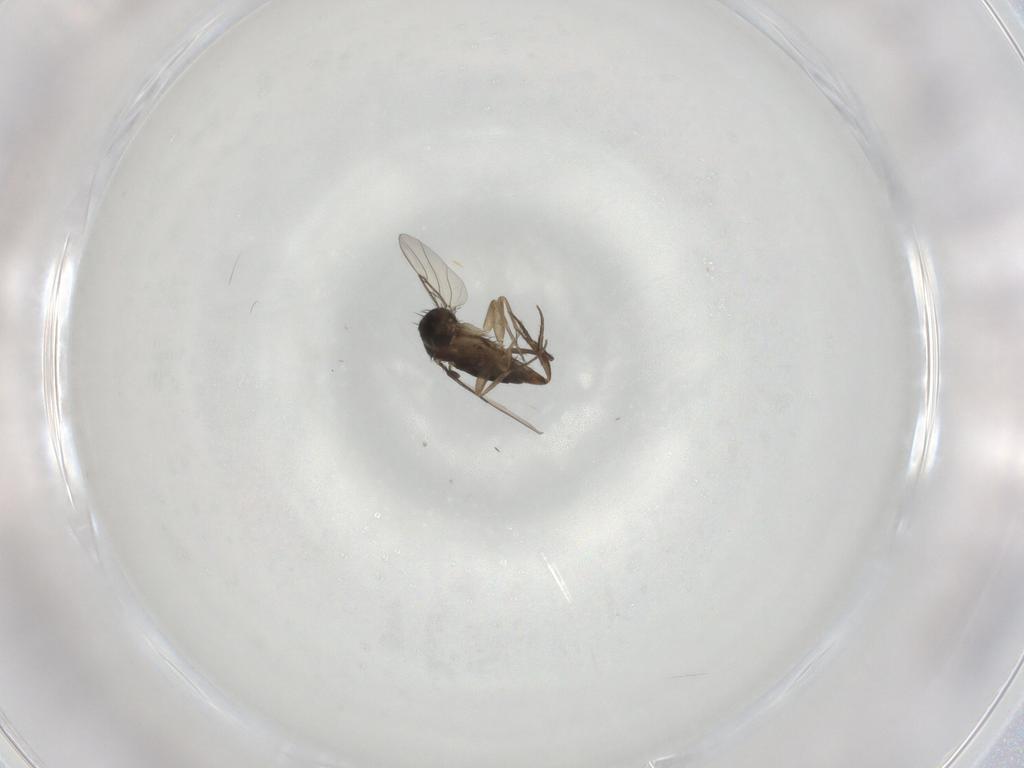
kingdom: Animalia
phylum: Arthropoda
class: Insecta
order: Diptera
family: Phoridae
